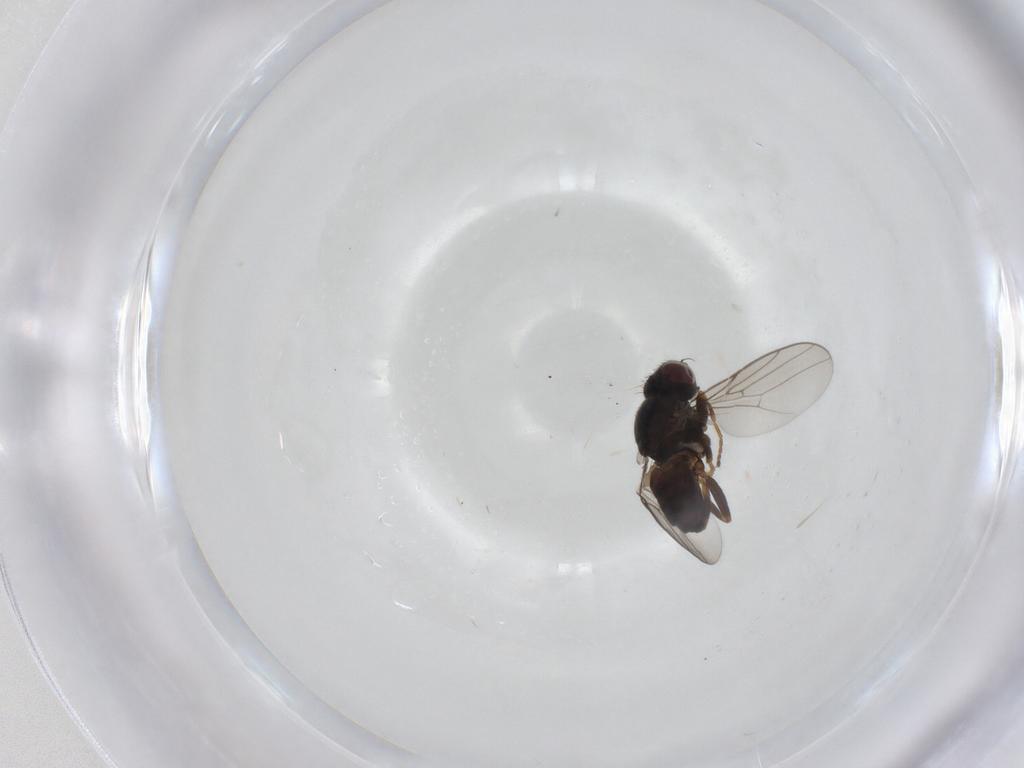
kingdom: Animalia
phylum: Arthropoda
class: Insecta
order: Diptera
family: Chloropidae
